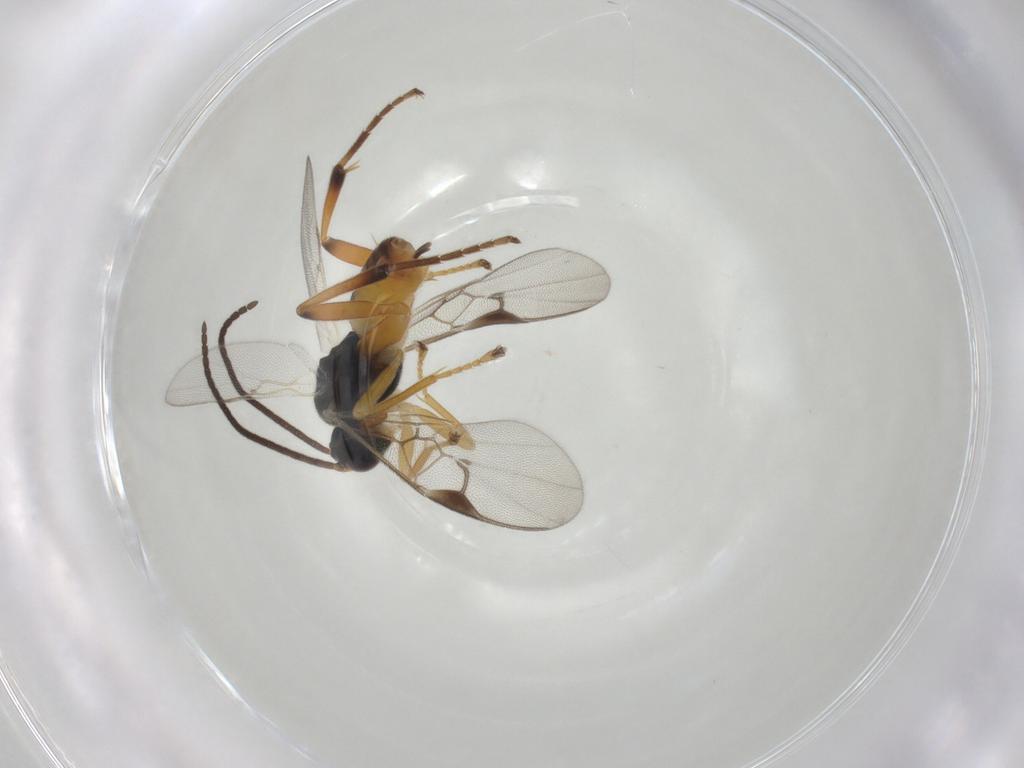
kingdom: Animalia
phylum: Arthropoda
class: Insecta
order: Hymenoptera
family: Braconidae
